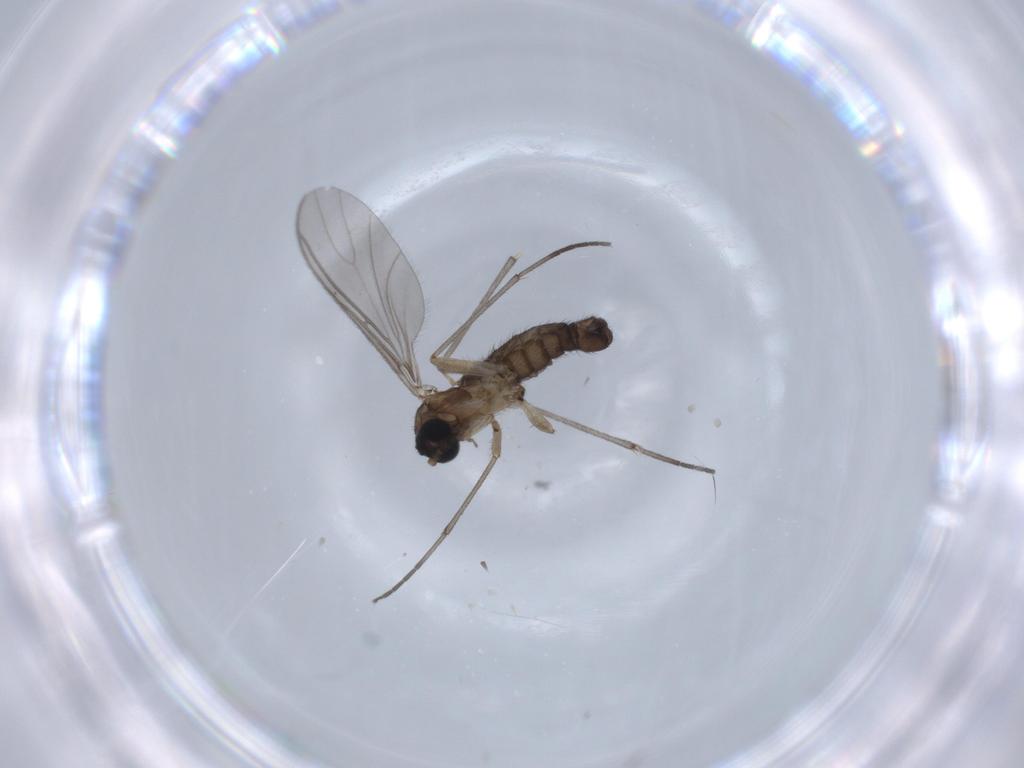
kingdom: Animalia
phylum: Arthropoda
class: Insecta
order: Diptera
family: Sciaridae
